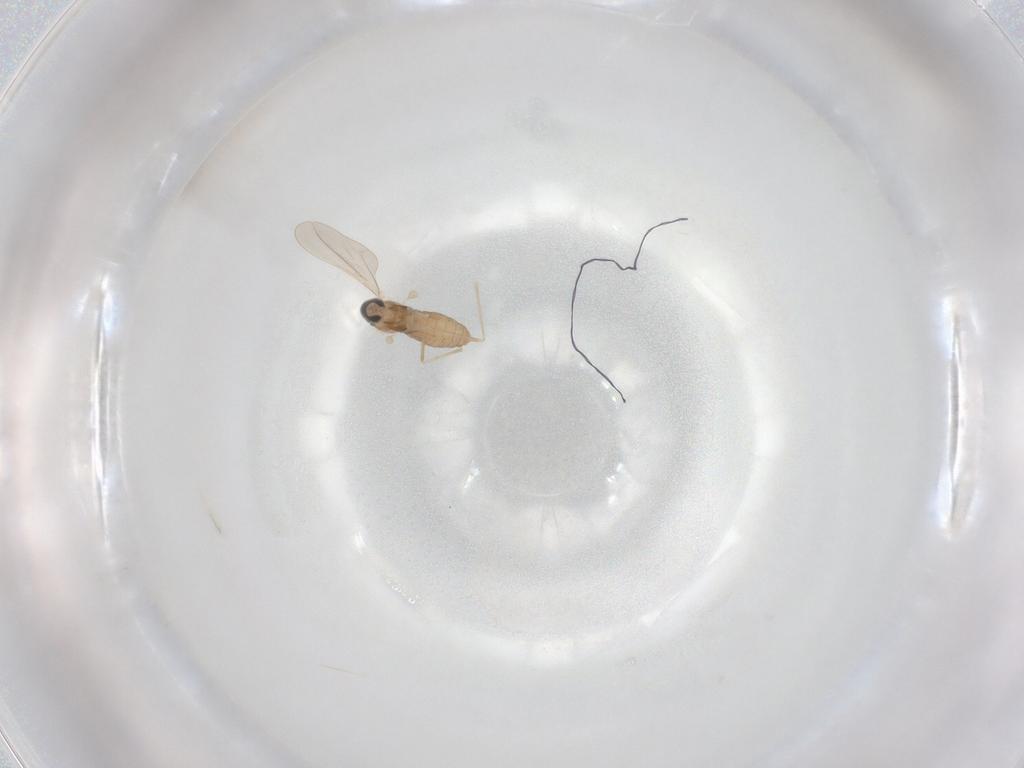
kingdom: Animalia
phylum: Arthropoda
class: Insecta
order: Diptera
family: Cecidomyiidae
